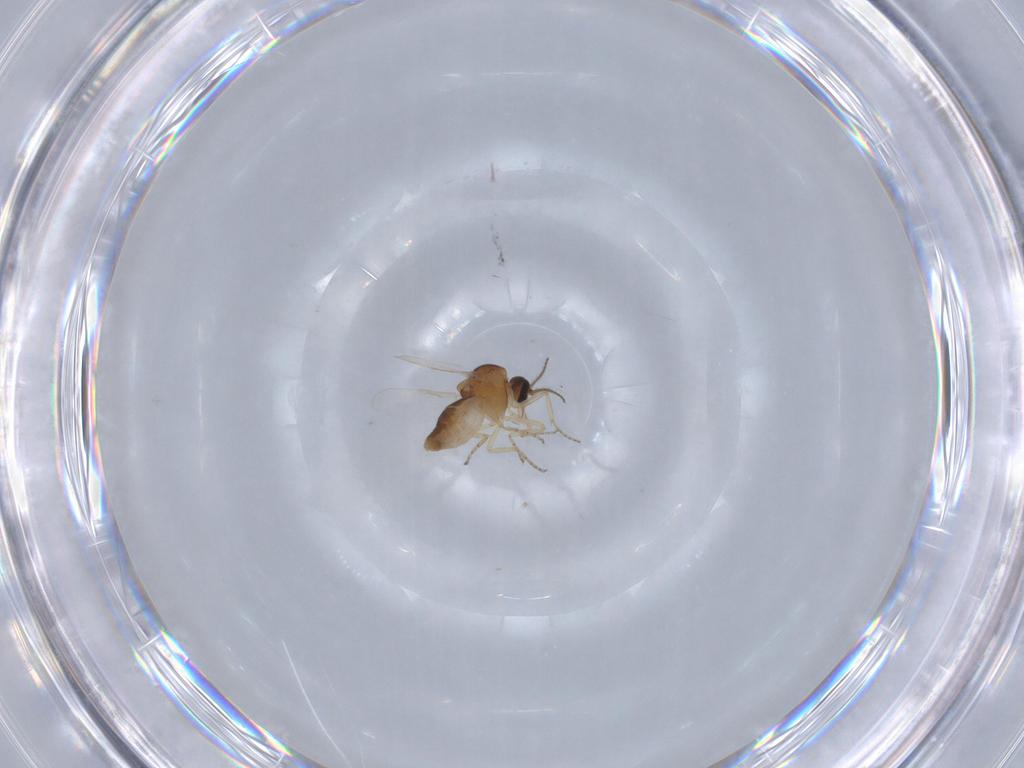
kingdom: Animalia
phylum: Arthropoda
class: Insecta
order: Diptera
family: Ceratopogonidae
